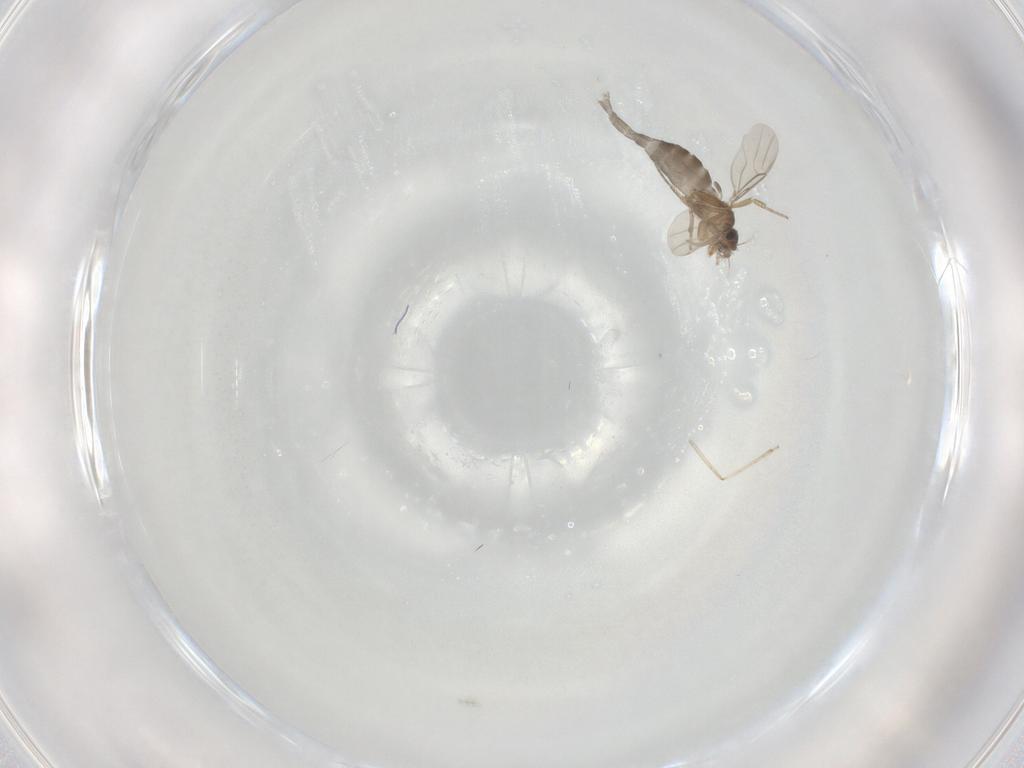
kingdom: Animalia
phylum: Arthropoda
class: Insecta
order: Diptera
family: Phoridae
